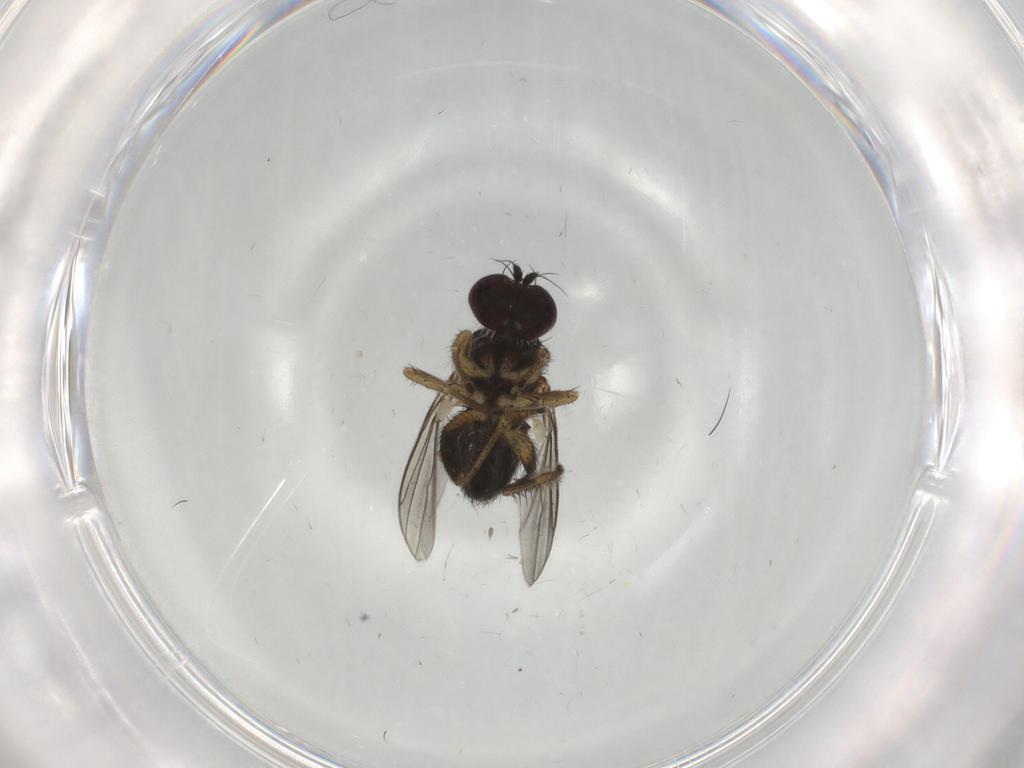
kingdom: Animalia
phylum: Arthropoda
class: Insecta
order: Diptera
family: Dolichopodidae
